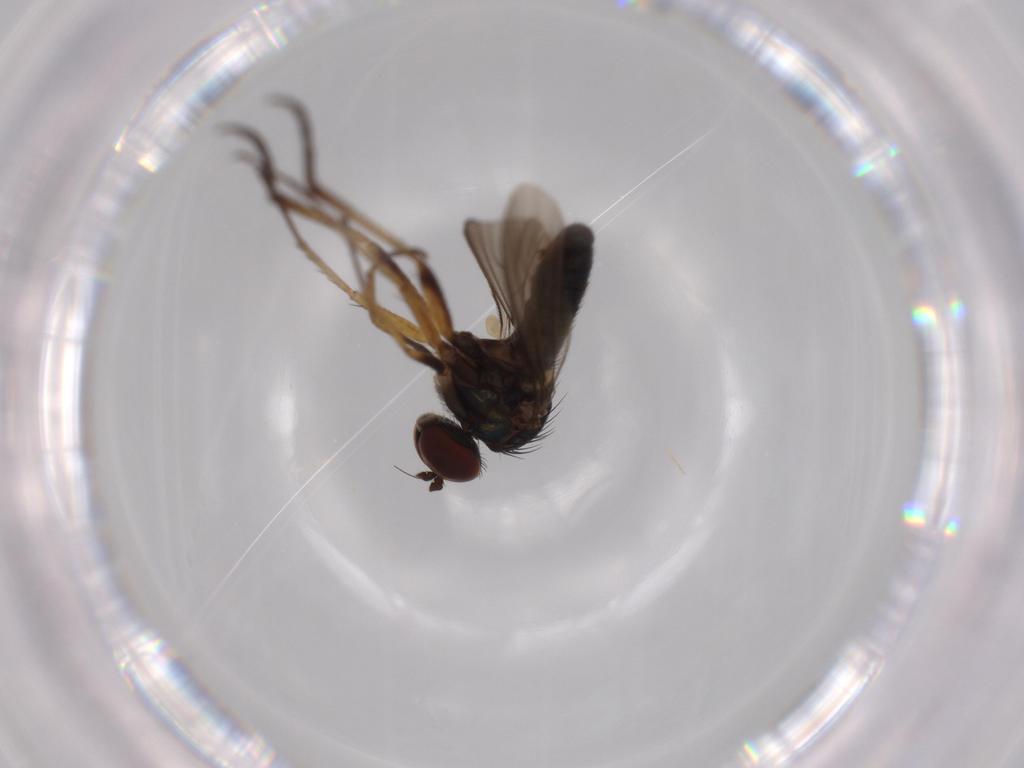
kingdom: Animalia
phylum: Arthropoda
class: Insecta
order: Diptera
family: Dolichopodidae
